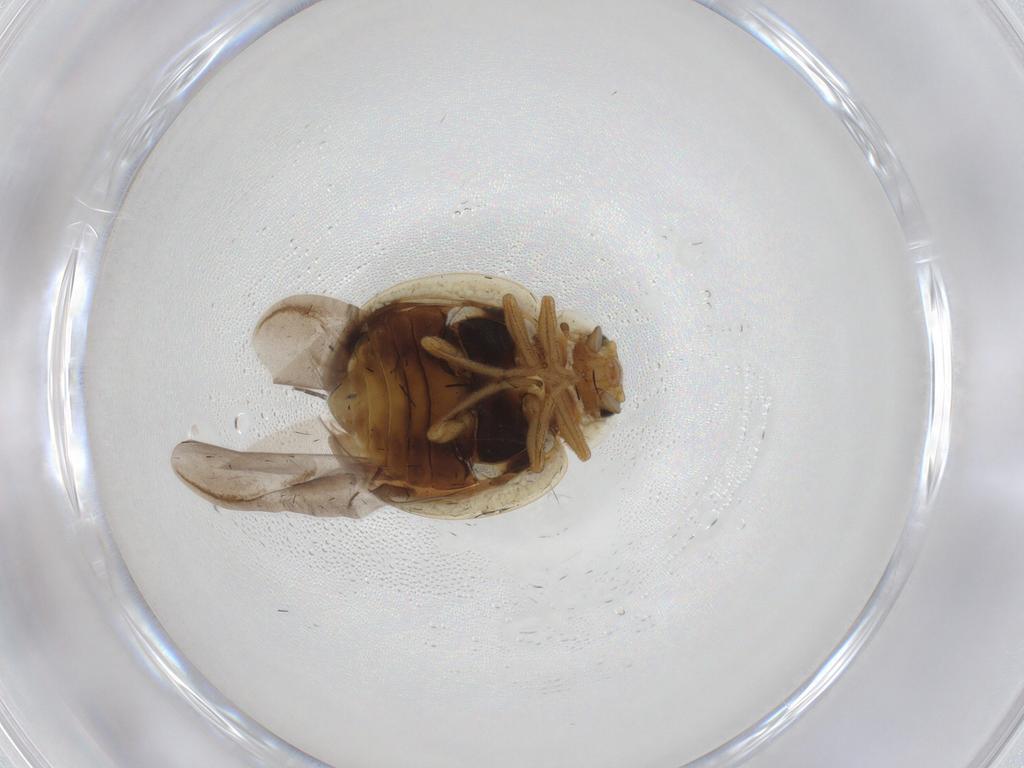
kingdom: Animalia
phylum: Arthropoda
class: Insecta
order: Coleoptera
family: Coccinellidae
